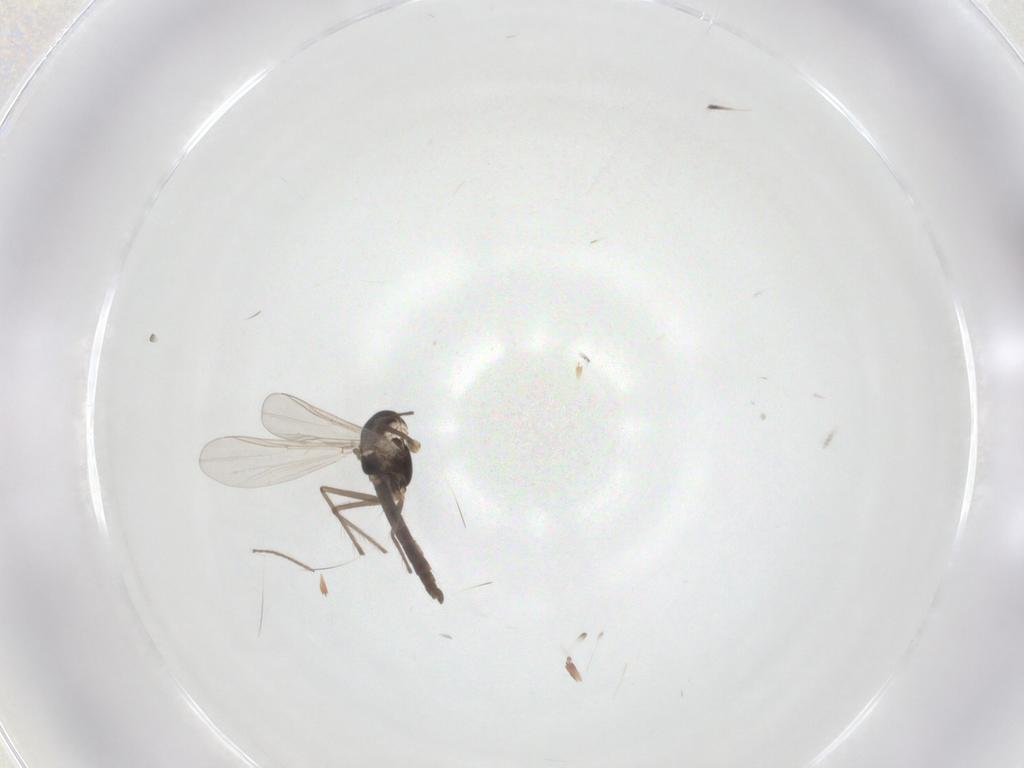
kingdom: Animalia
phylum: Arthropoda
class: Insecta
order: Diptera
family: Chironomidae
